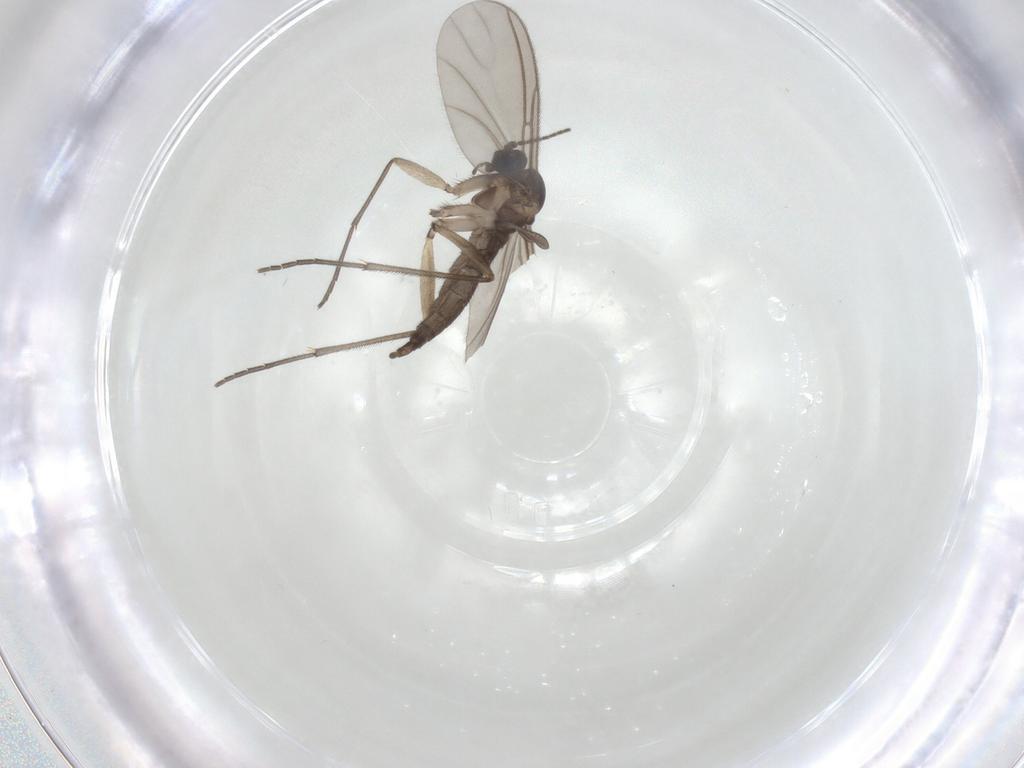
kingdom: Animalia
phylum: Arthropoda
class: Insecta
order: Diptera
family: Sciaridae
